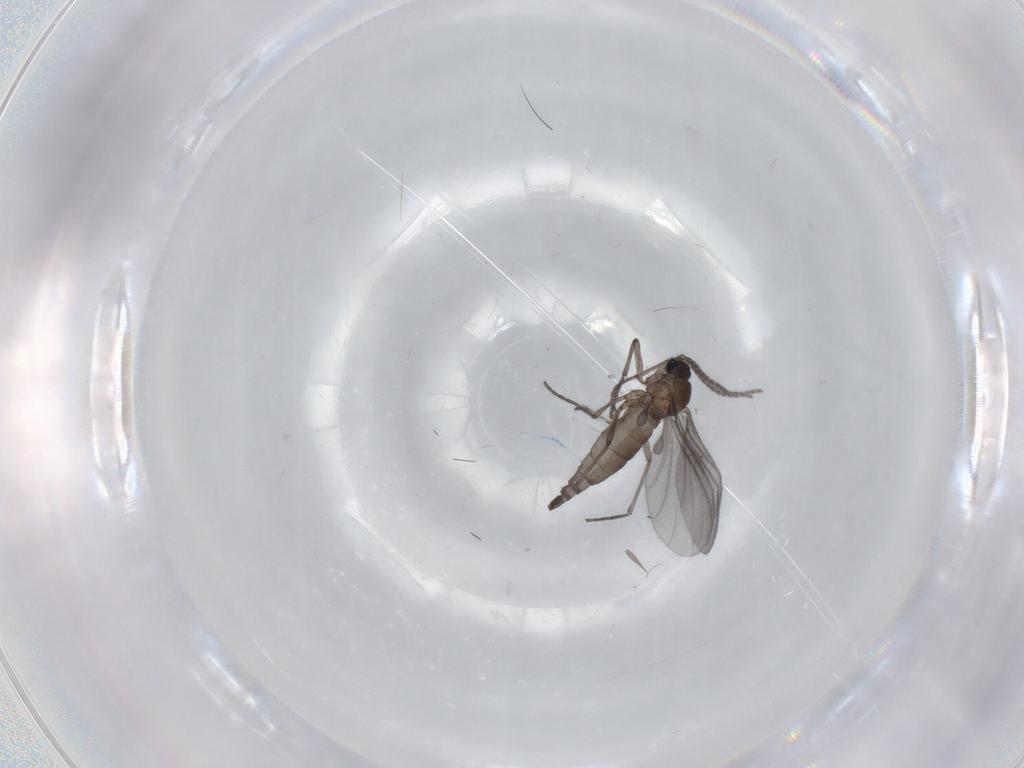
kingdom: Animalia
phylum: Arthropoda
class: Insecta
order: Diptera
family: Sciaridae
